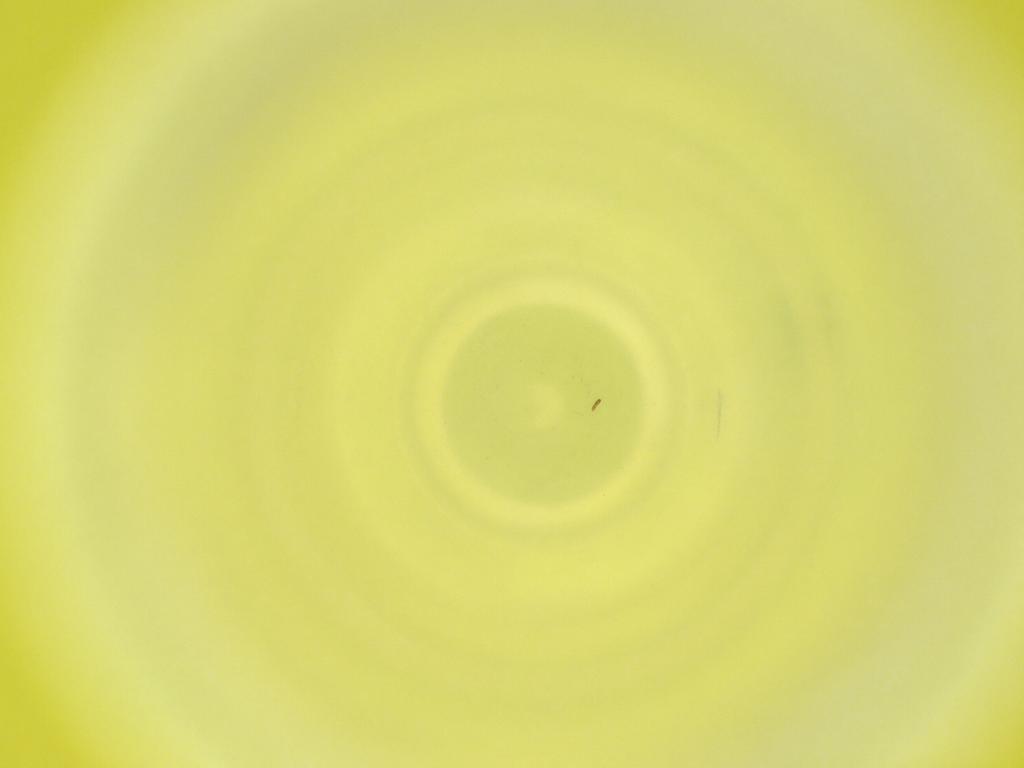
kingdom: Animalia
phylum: Arthropoda
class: Insecta
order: Diptera
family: Cecidomyiidae
